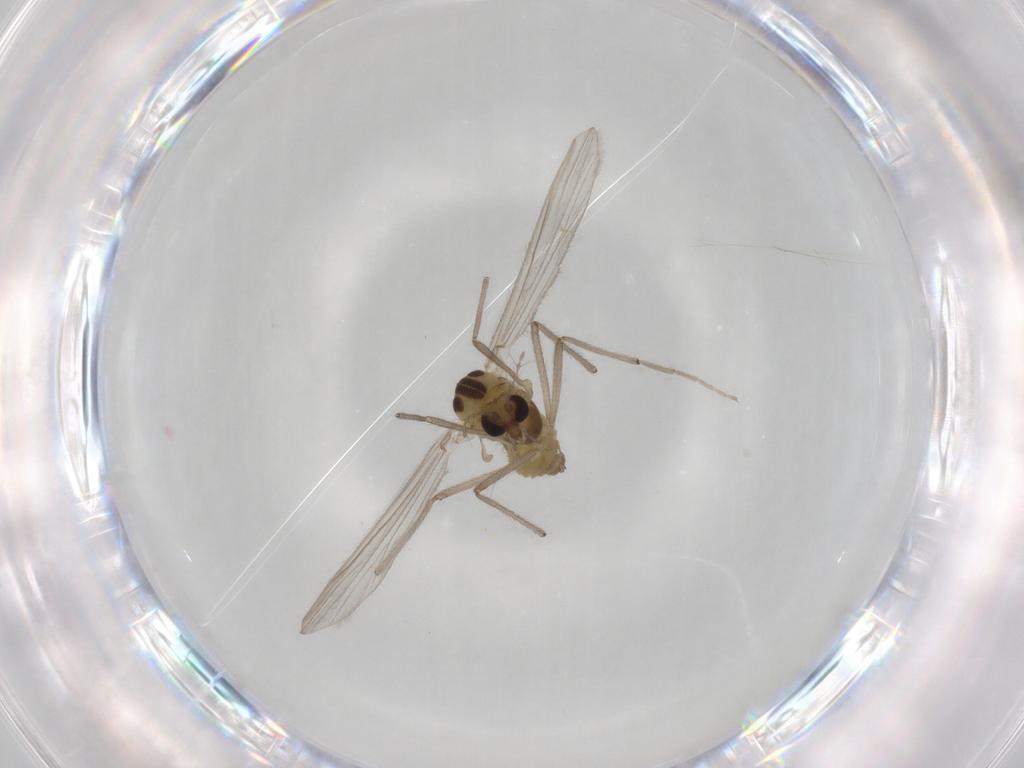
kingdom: Animalia
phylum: Arthropoda
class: Insecta
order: Diptera
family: Chironomidae
